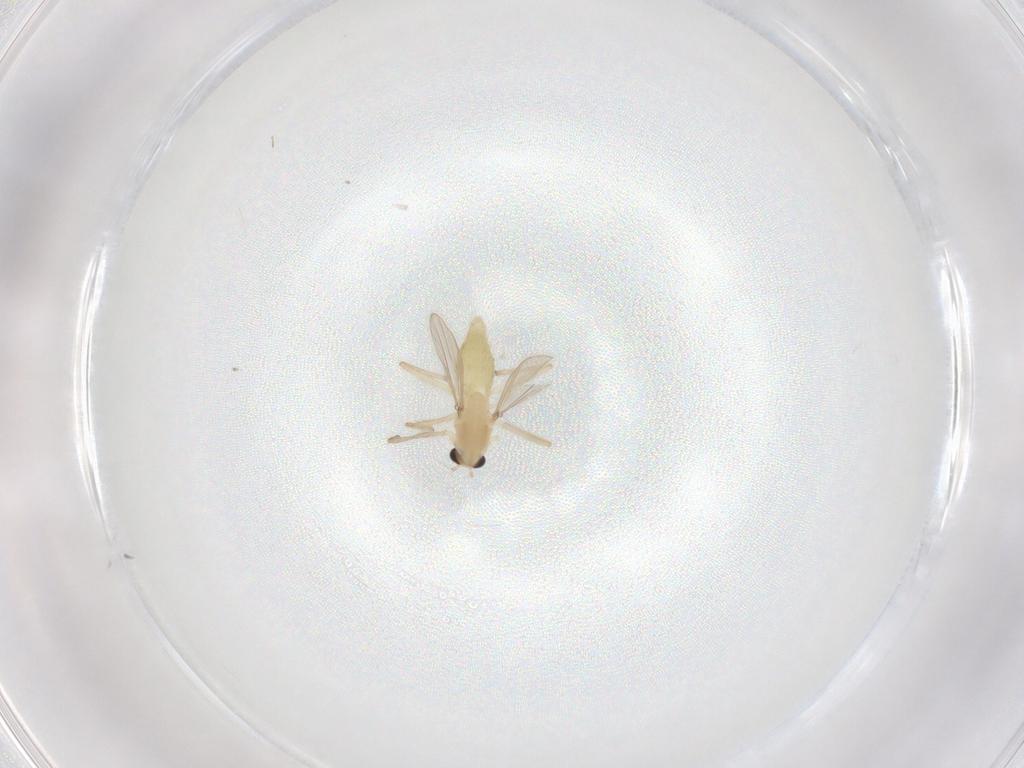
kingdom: Animalia
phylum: Arthropoda
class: Insecta
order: Diptera
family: Chironomidae
